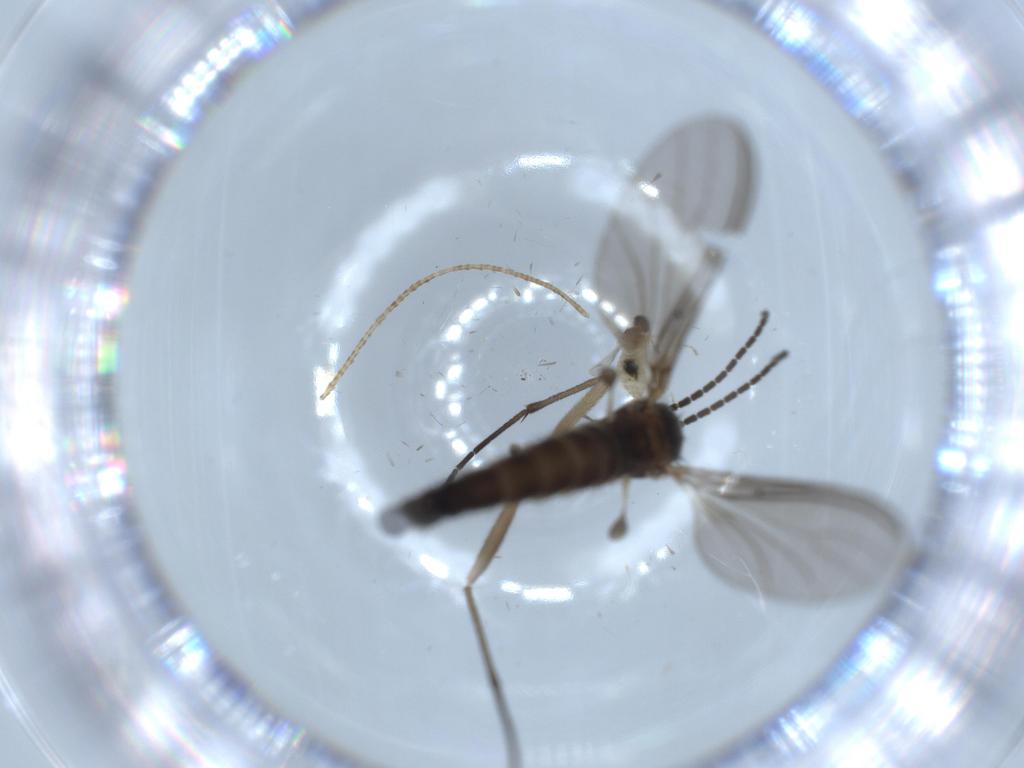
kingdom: Animalia
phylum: Arthropoda
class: Insecta
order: Diptera
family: Sciaridae
